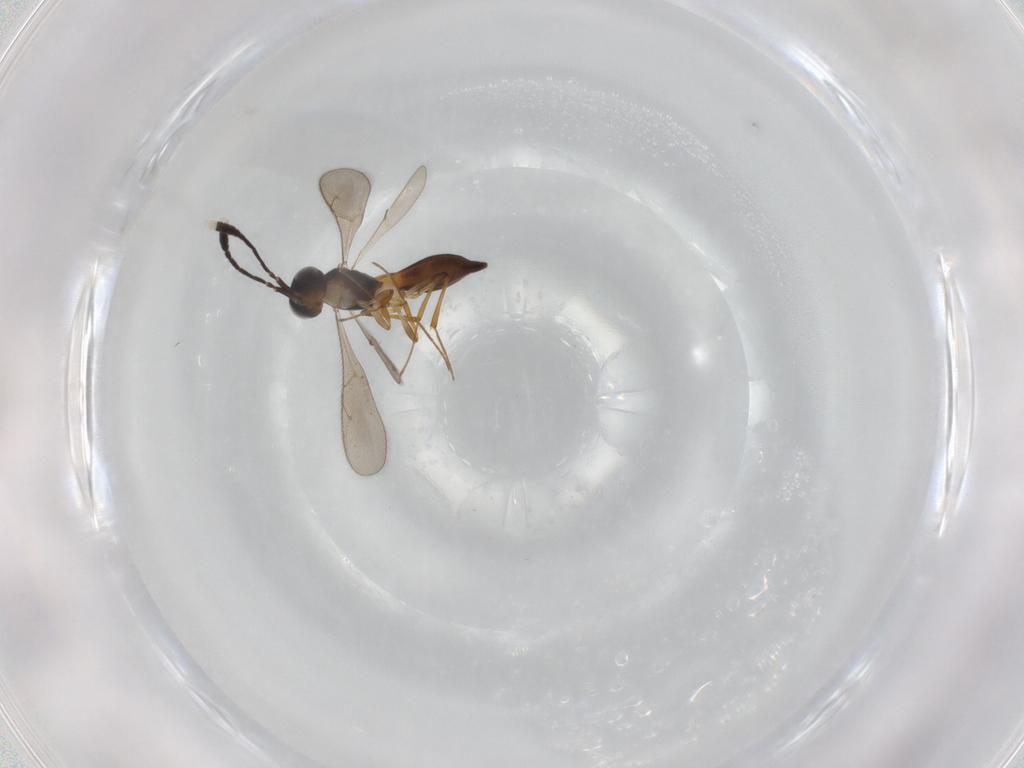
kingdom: Animalia
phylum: Arthropoda
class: Insecta
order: Hymenoptera
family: Scelionidae
